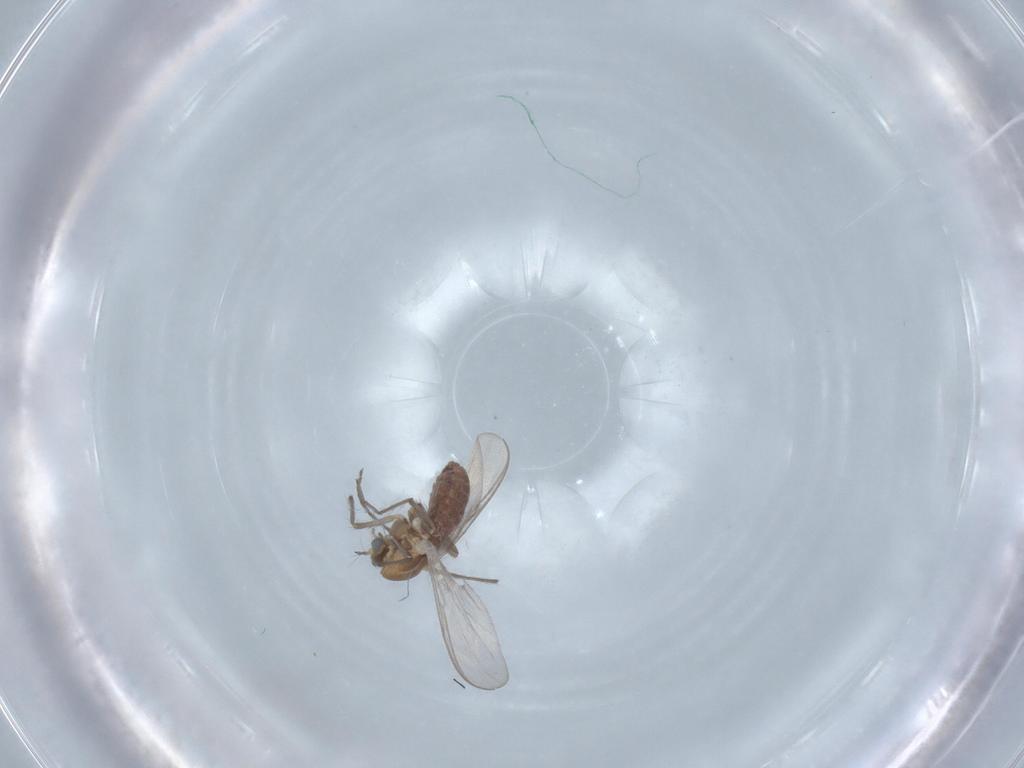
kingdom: Animalia
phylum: Arthropoda
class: Insecta
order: Diptera
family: Chironomidae
